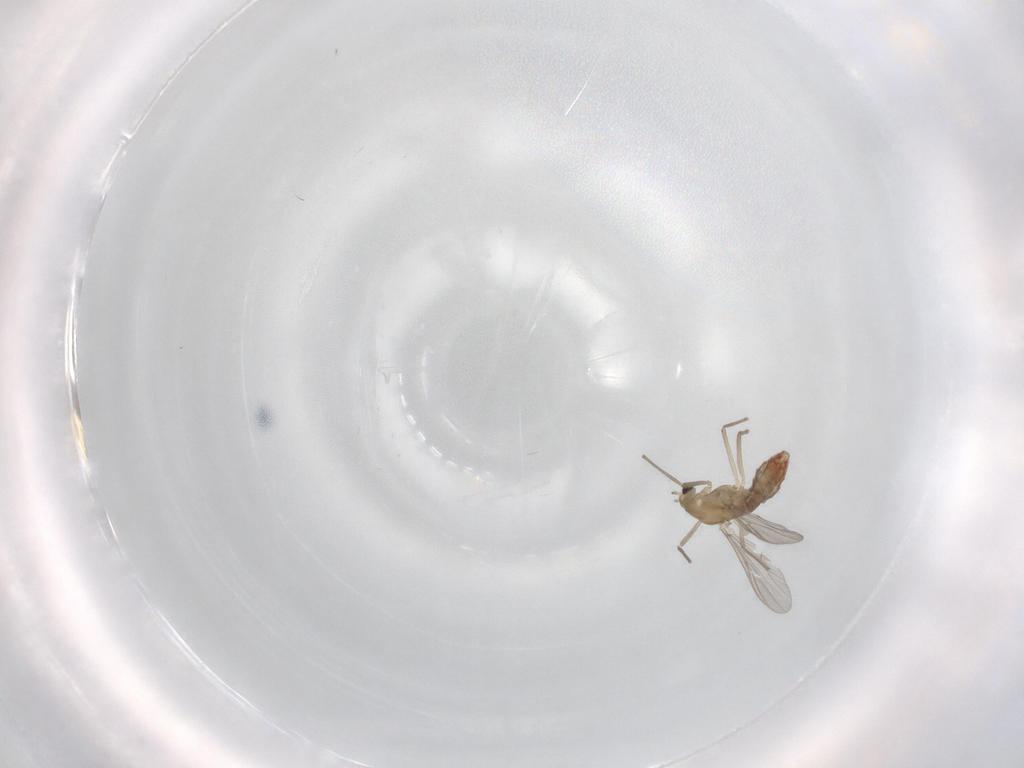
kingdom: Animalia
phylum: Arthropoda
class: Insecta
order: Diptera
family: Chironomidae
